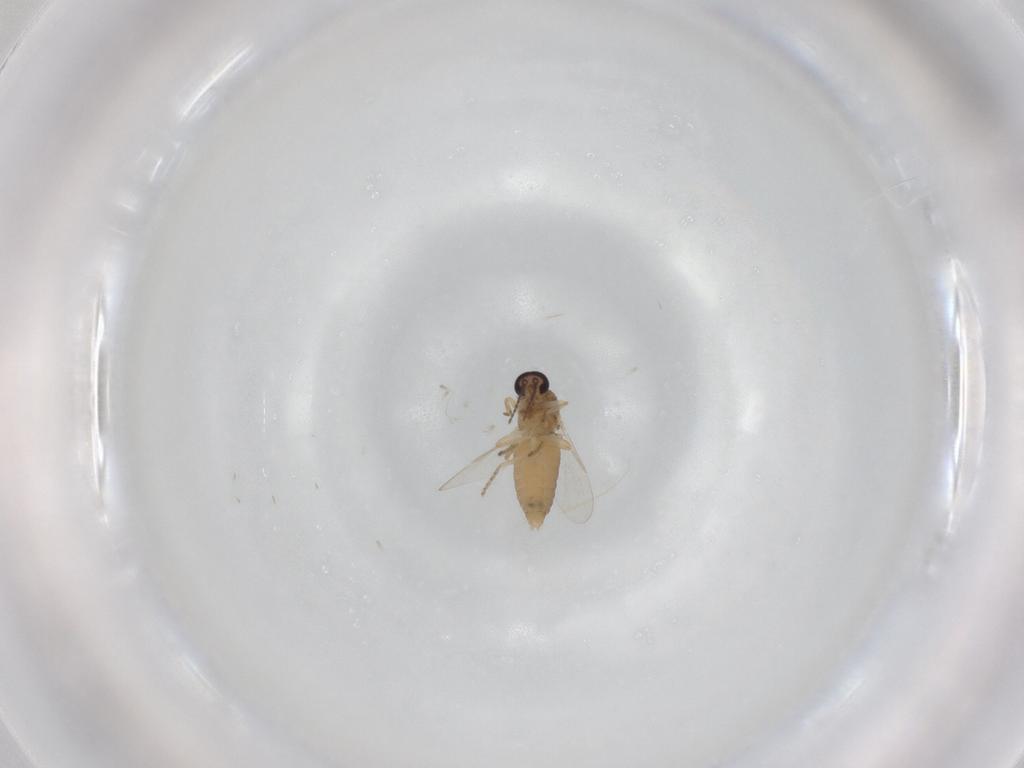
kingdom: Animalia
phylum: Arthropoda
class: Insecta
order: Diptera
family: Ceratopogonidae
